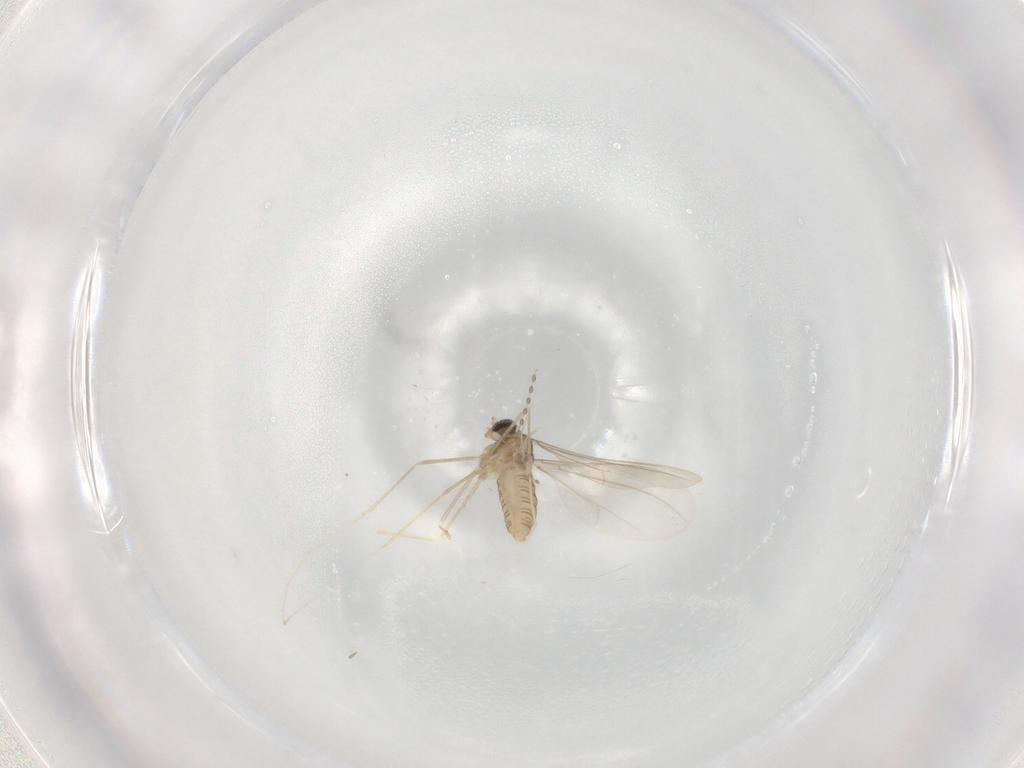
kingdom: Animalia
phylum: Arthropoda
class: Insecta
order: Diptera
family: Cecidomyiidae
